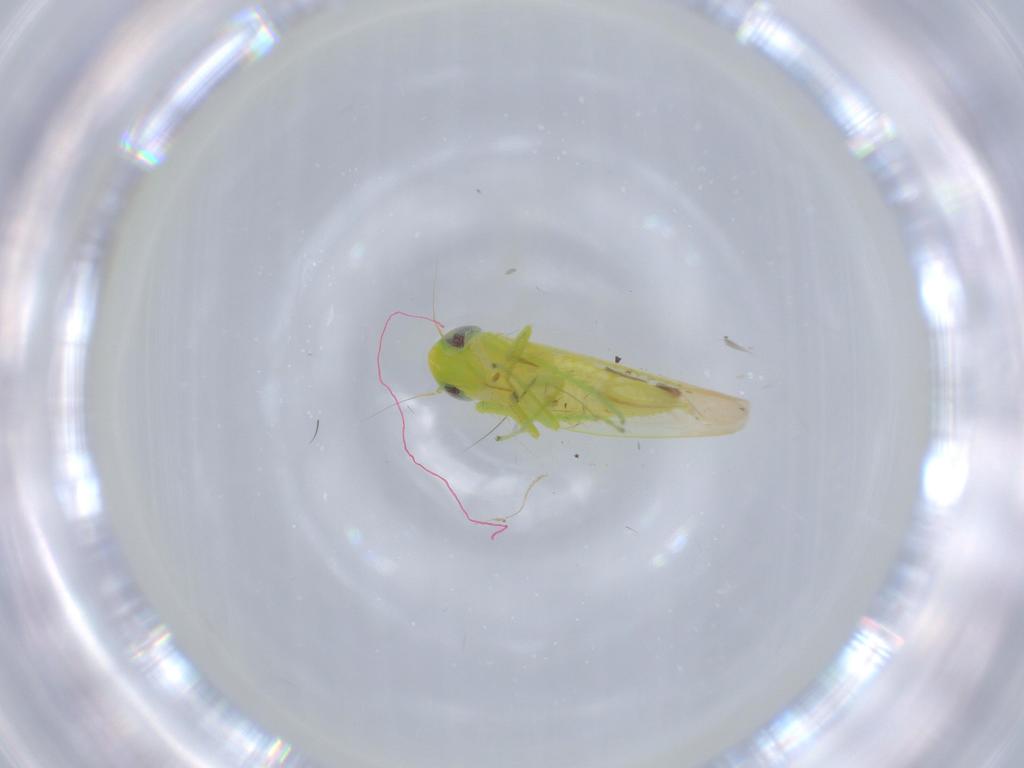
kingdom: Animalia
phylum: Arthropoda
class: Insecta
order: Hemiptera
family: Cicadellidae
